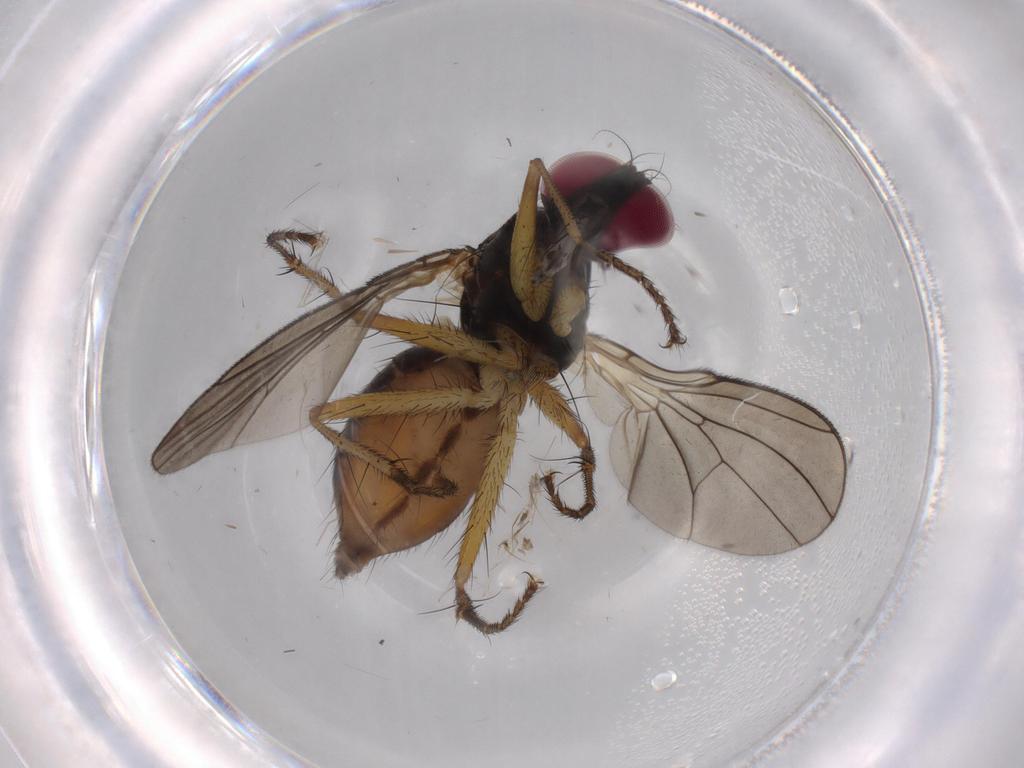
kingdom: Animalia
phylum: Arthropoda
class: Insecta
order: Diptera
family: Anthomyiidae
